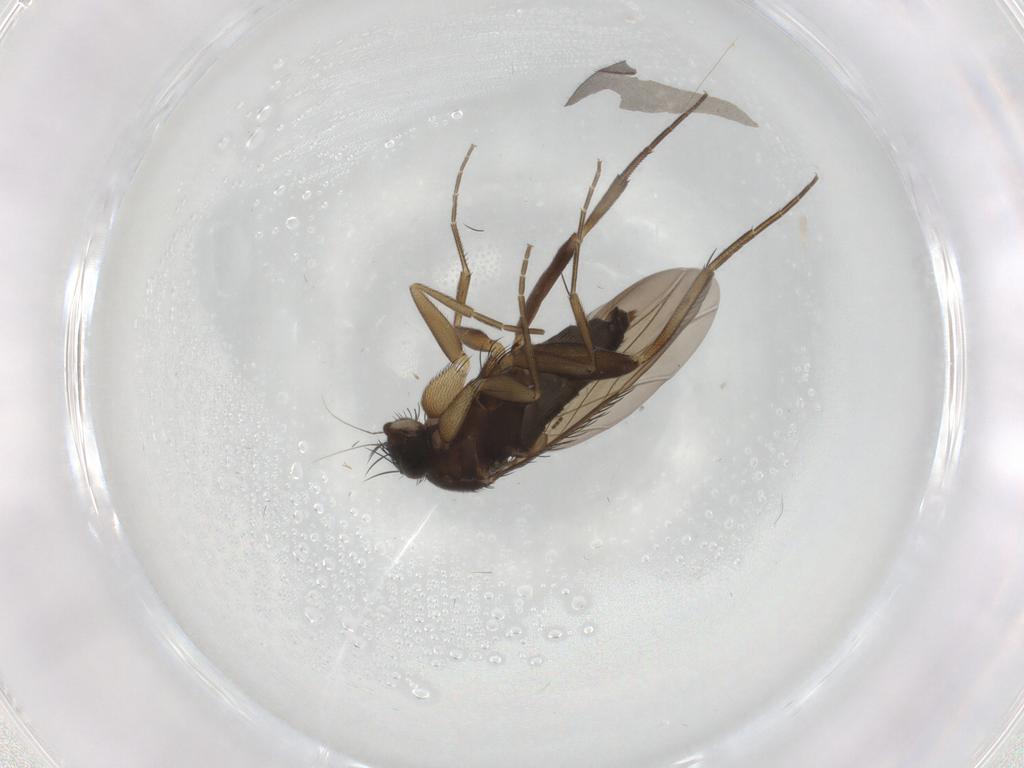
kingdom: Animalia
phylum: Arthropoda
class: Insecta
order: Diptera
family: Phoridae
